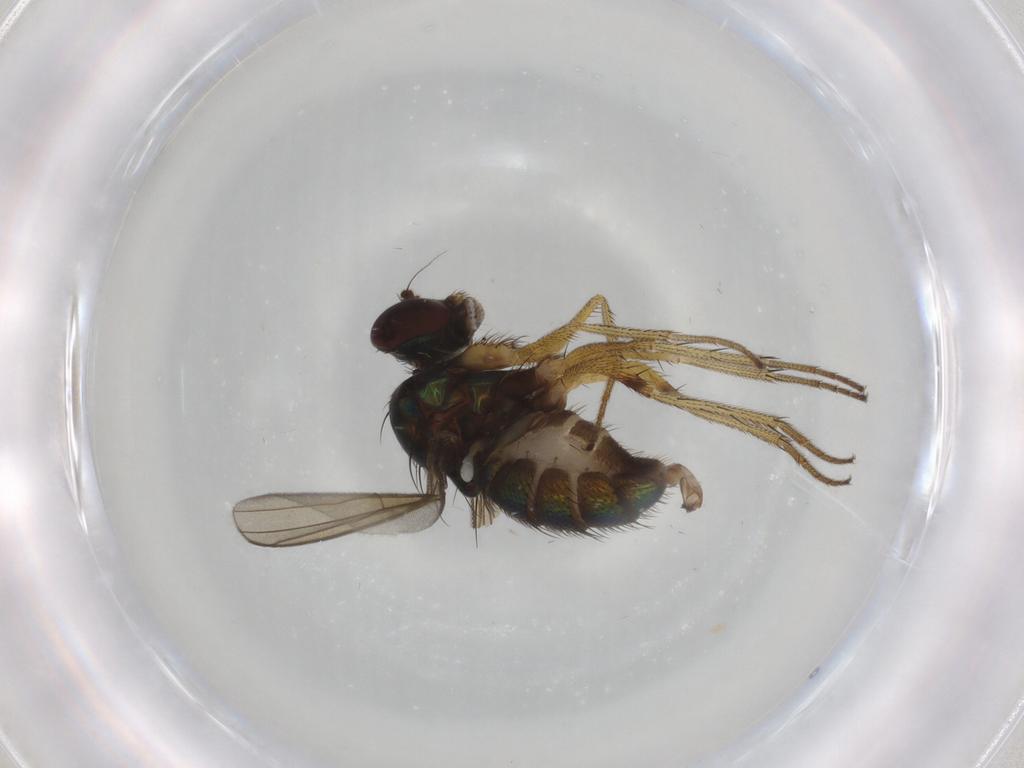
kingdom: Animalia
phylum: Arthropoda
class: Insecta
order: Diptera
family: Dolichopodidae
